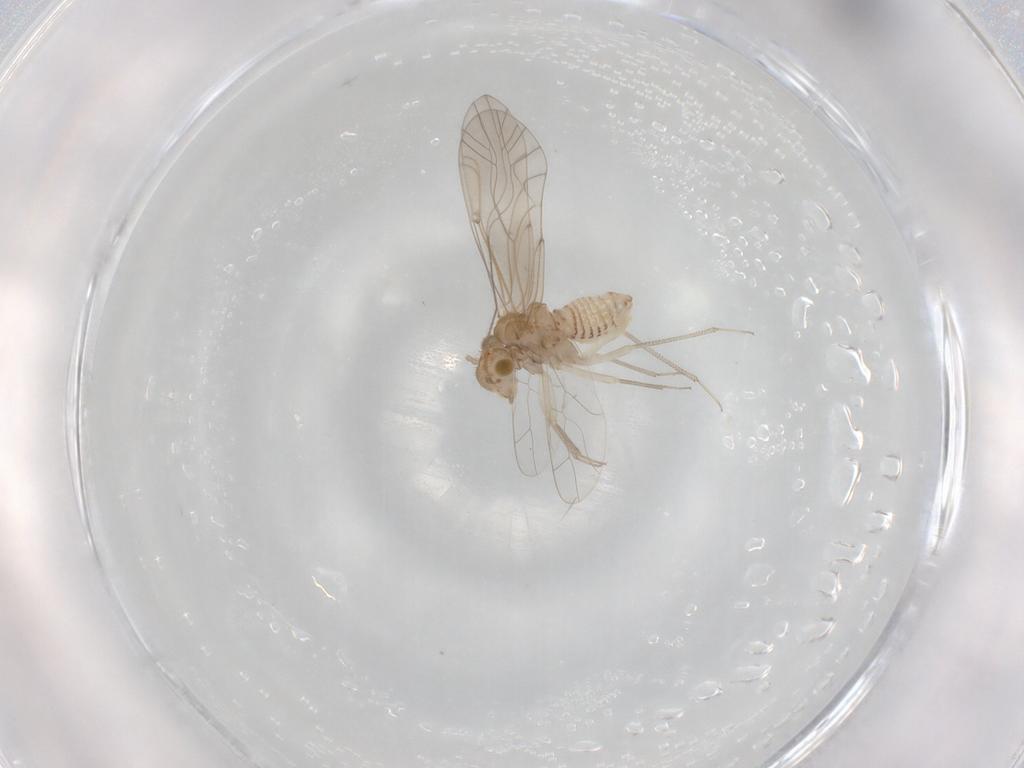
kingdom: Animalia
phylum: Arthropoda
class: Insecta
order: Psocodea
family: Lachesillidae
